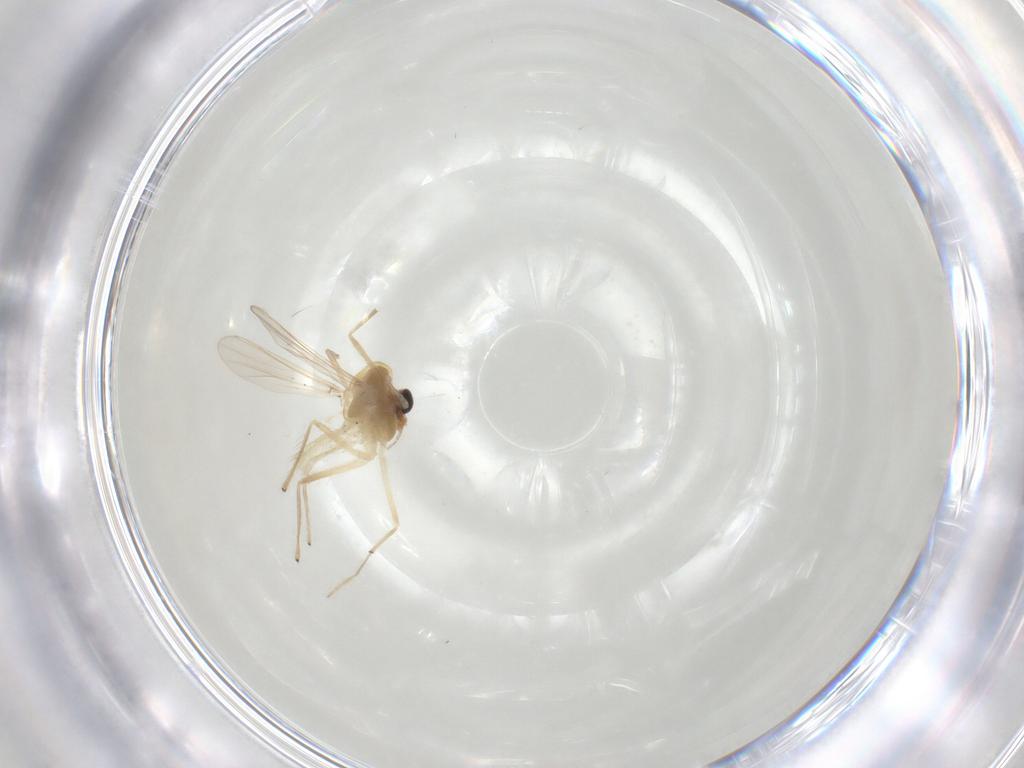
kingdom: Animalia
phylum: Arthropoda
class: Insecta
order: Diptera
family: Chironomidae
